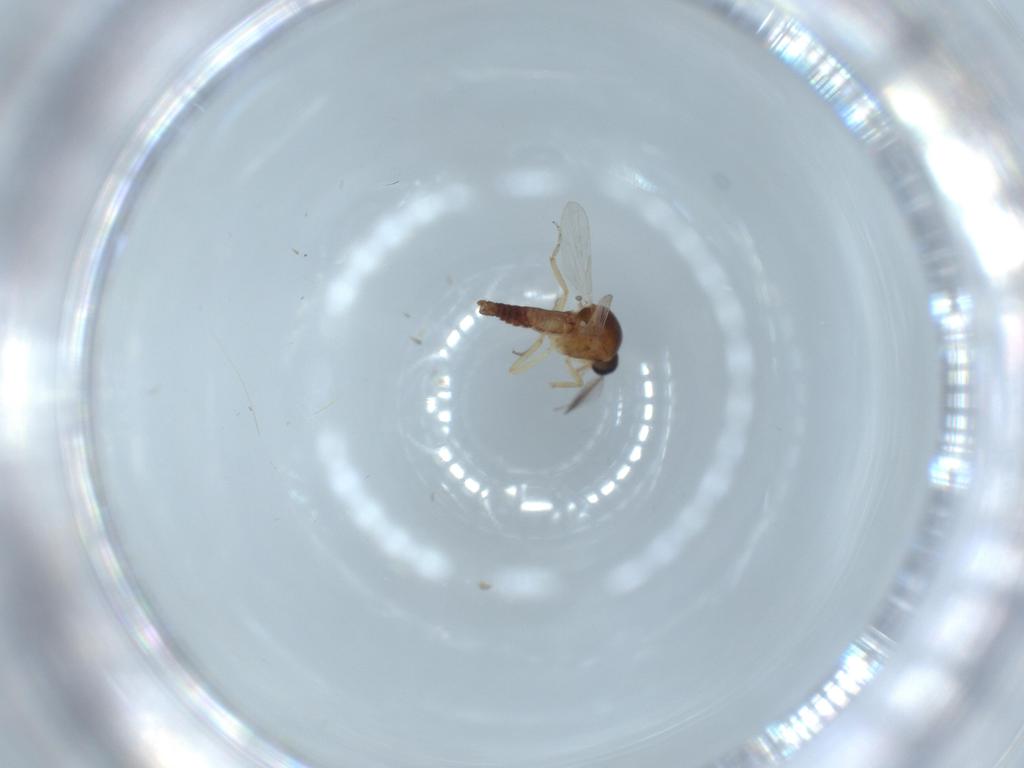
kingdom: Animalia
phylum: Arthropoda
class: Insecta
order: Diptera
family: Ceratopogonidae
